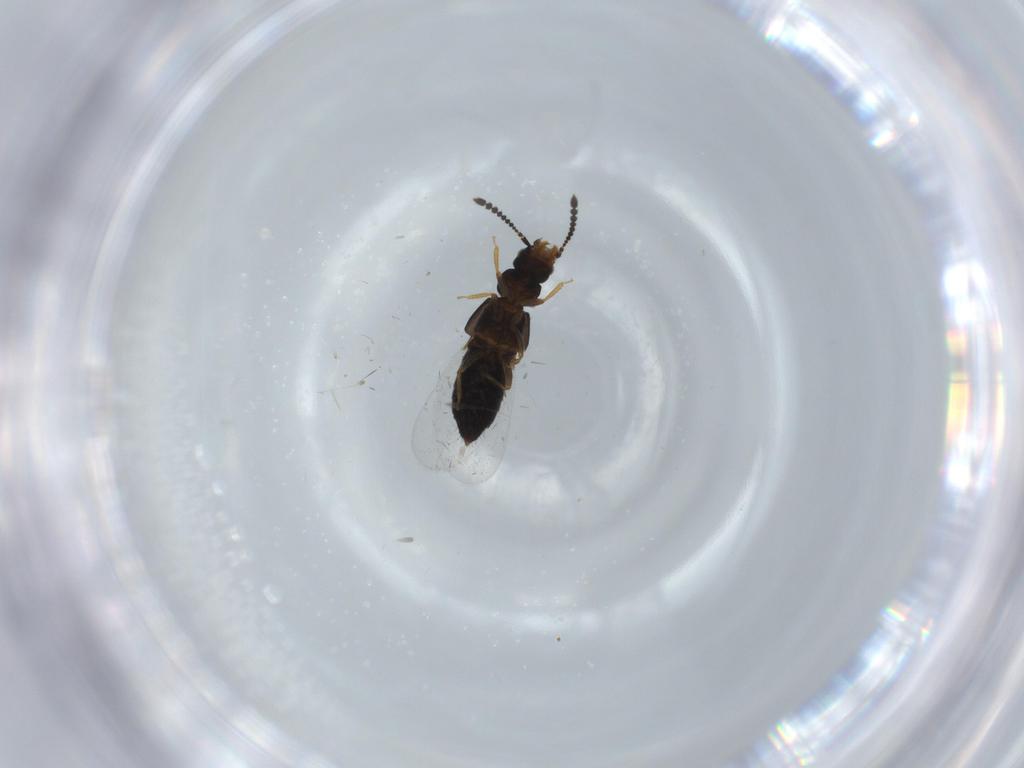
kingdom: Animalia
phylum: Arthropoda
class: Insecta
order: Coleoptera
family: Staphylinidae
